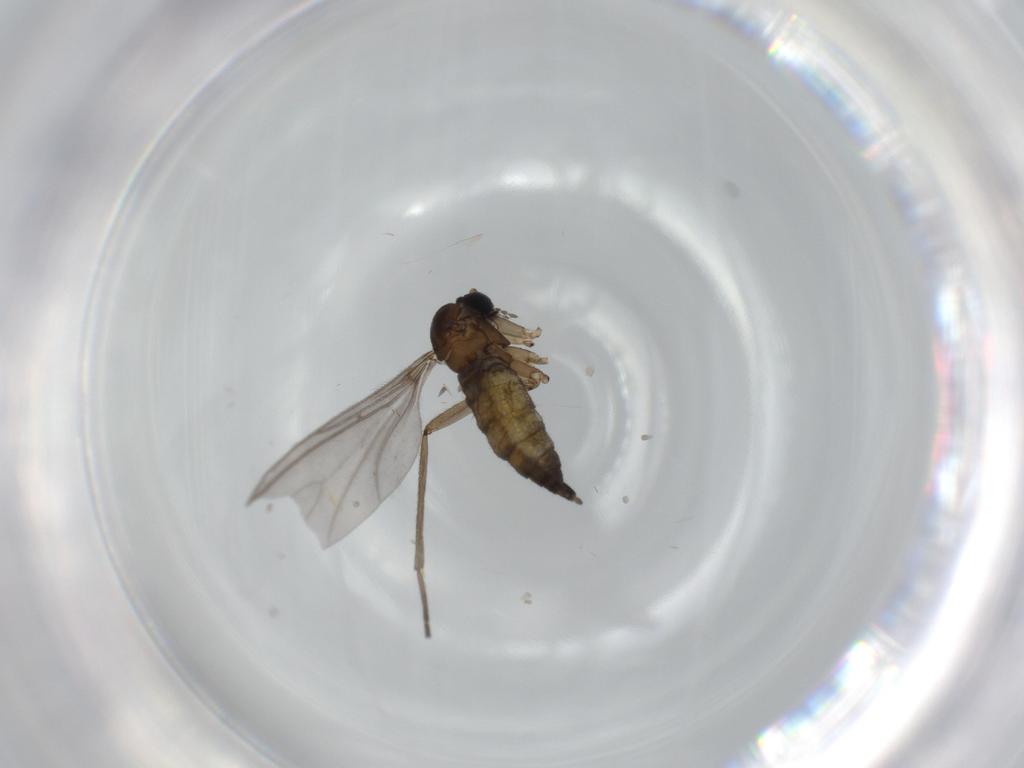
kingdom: Animalia
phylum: Arthropoda
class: Insecta
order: Diptera
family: Sciaridae
